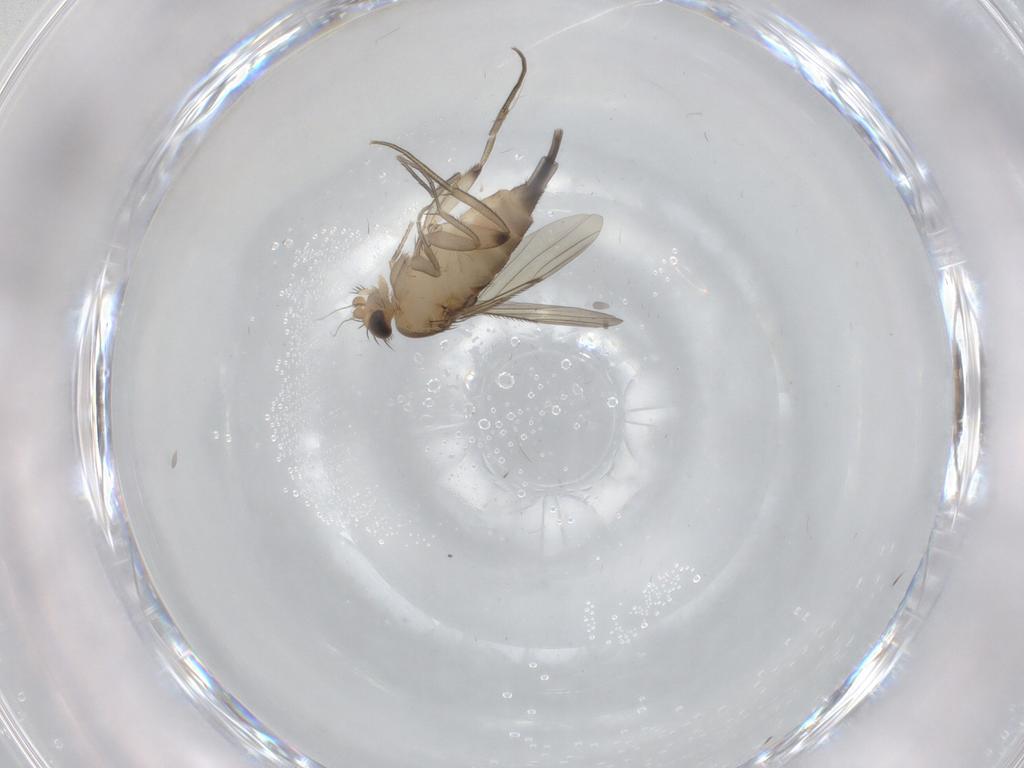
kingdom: Animalia
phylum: Arthropoda
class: Insecta
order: Diptera
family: Phoridae
